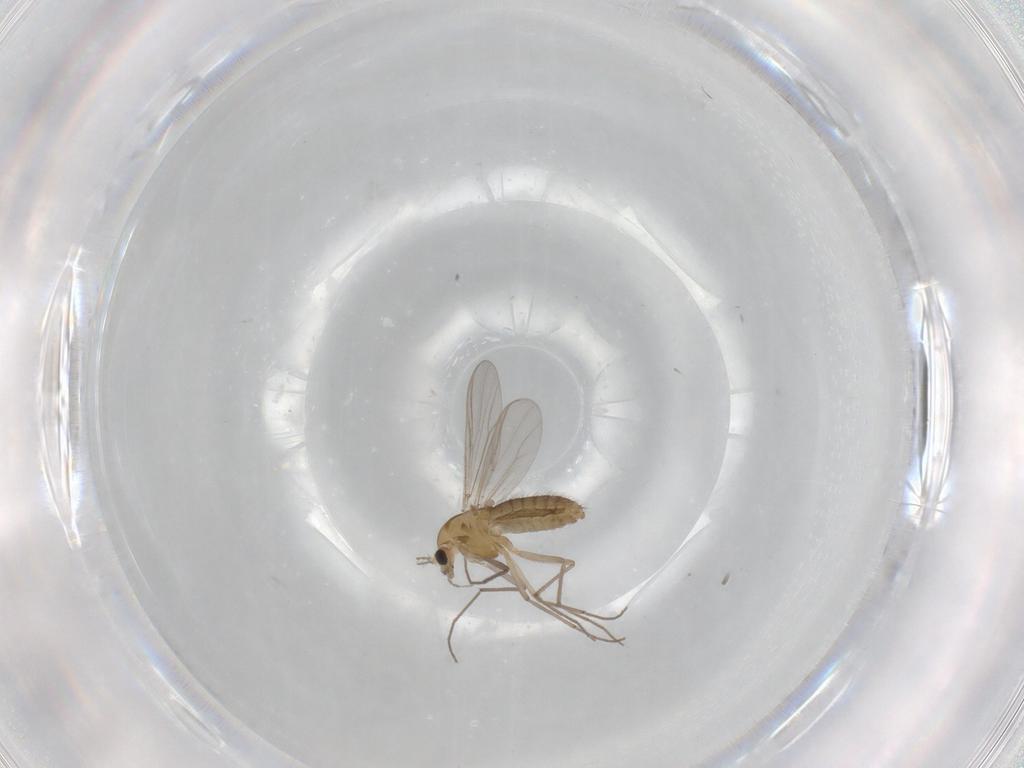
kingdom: Animalia
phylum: Arthropoda
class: Insecta
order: Diptera
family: Chironomidae
